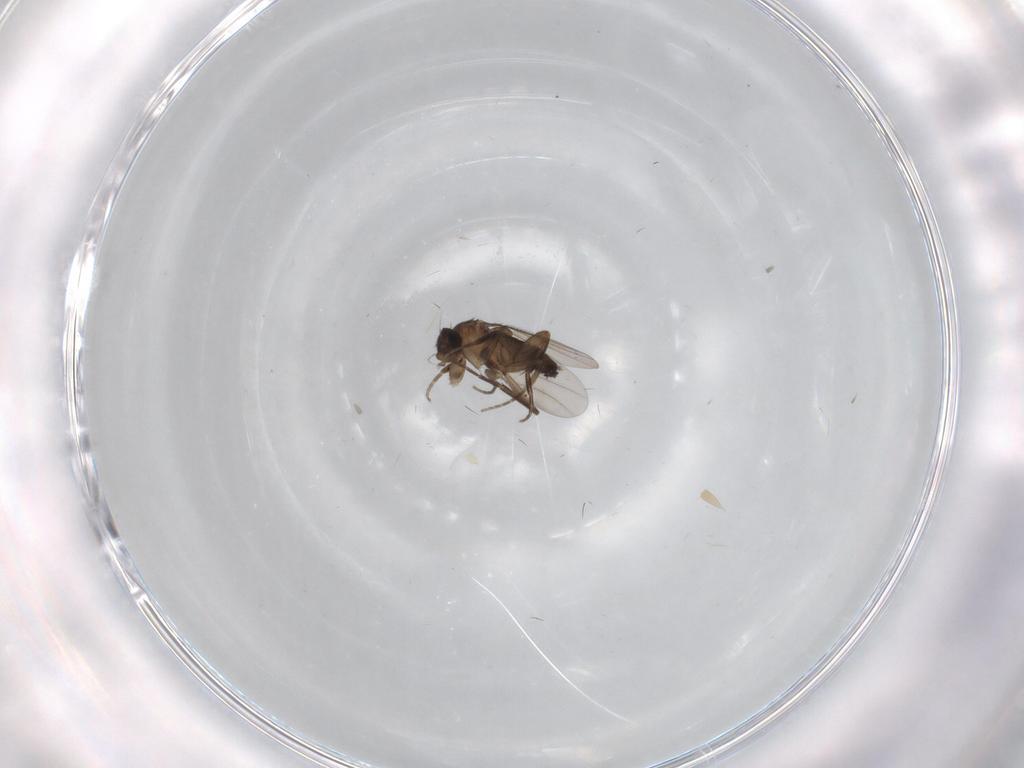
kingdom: Animalia
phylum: Arthropoda
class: Insecta
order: Diptera
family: Phoridae
